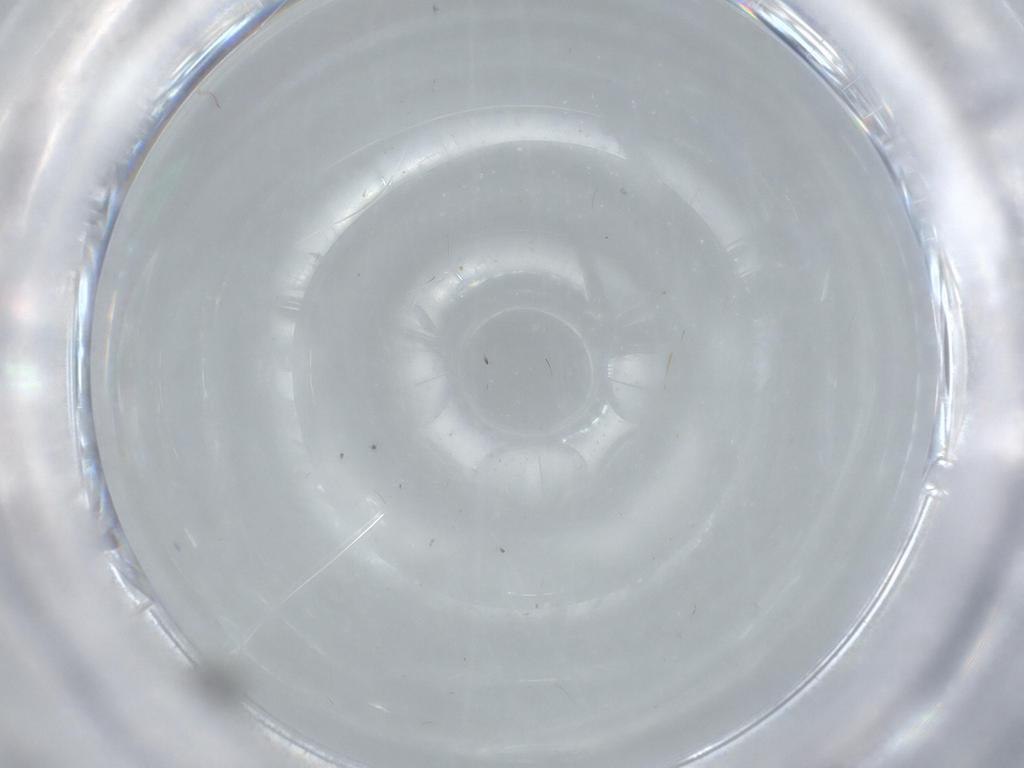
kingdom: Animalia
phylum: Arthropoda
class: Insecta
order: Diptera
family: Cecidomyiidae
